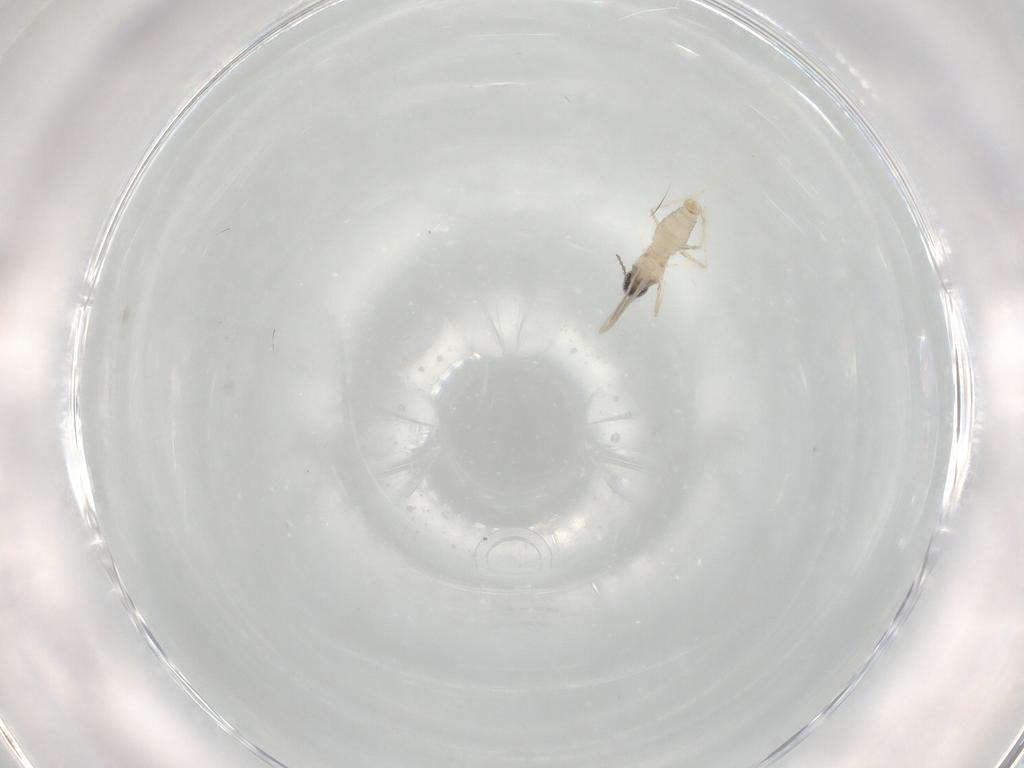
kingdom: Animalia
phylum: Arthropoda
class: Insecta
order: Diptera
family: Cecidomyiidae
